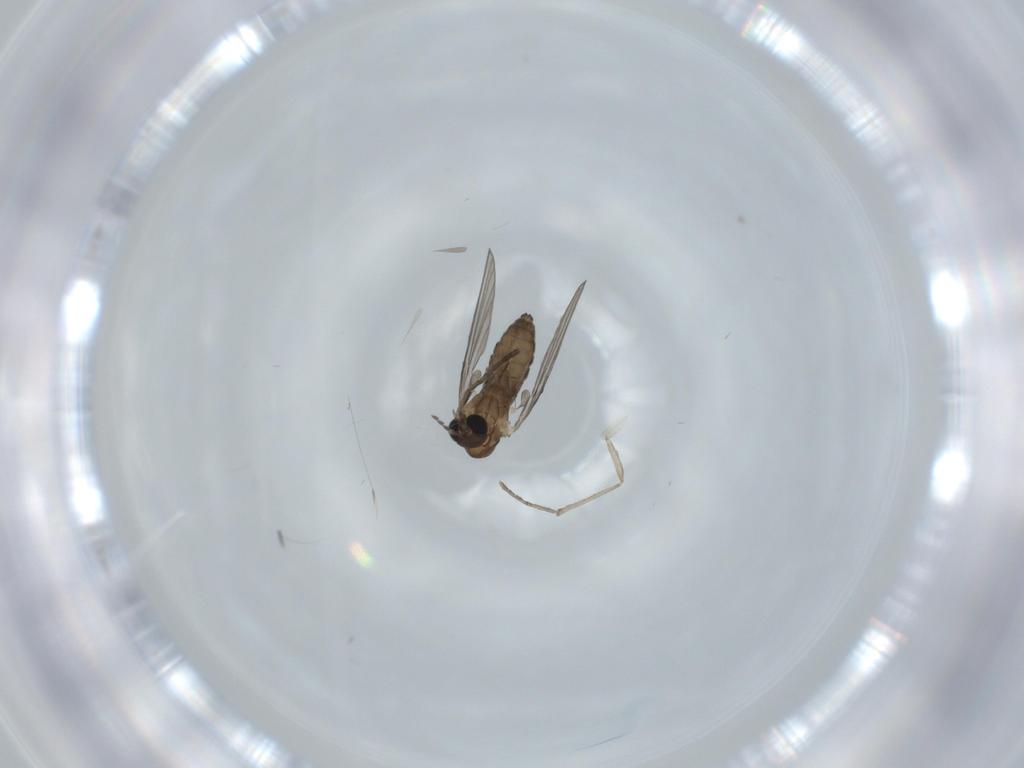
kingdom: Animalia
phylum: Arthropoda
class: Insecta
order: Diptera
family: Psychodidae
